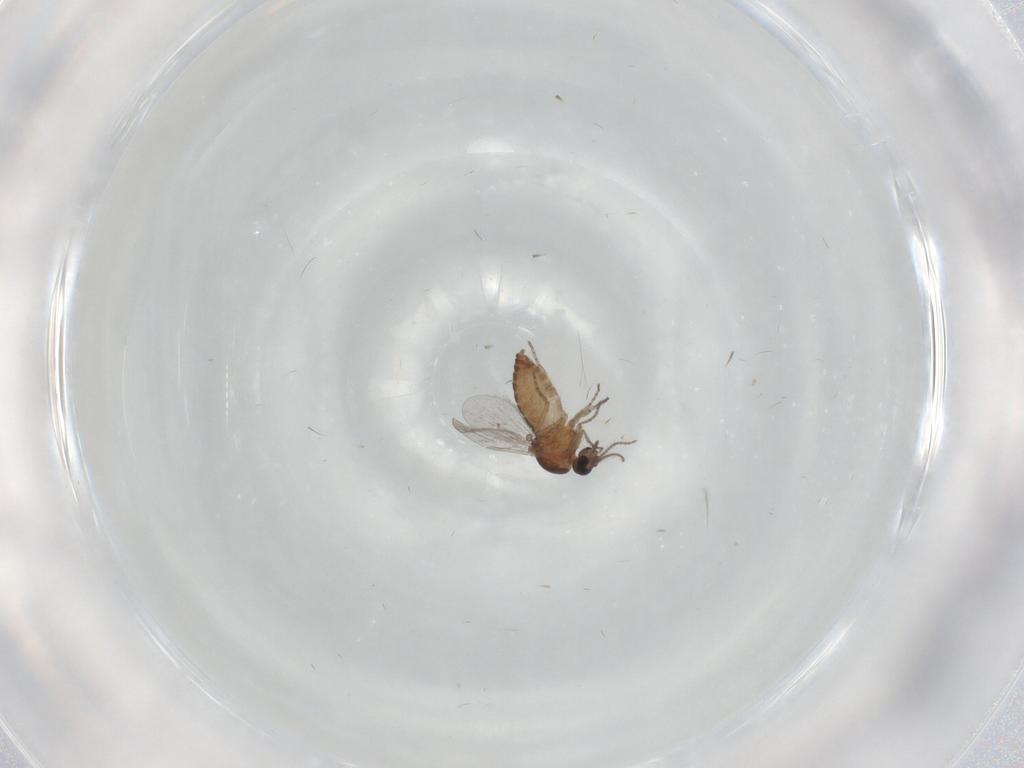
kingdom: Animalia
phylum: Arthropoda
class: Insecta
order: Diptera
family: Ceratopogonidae
